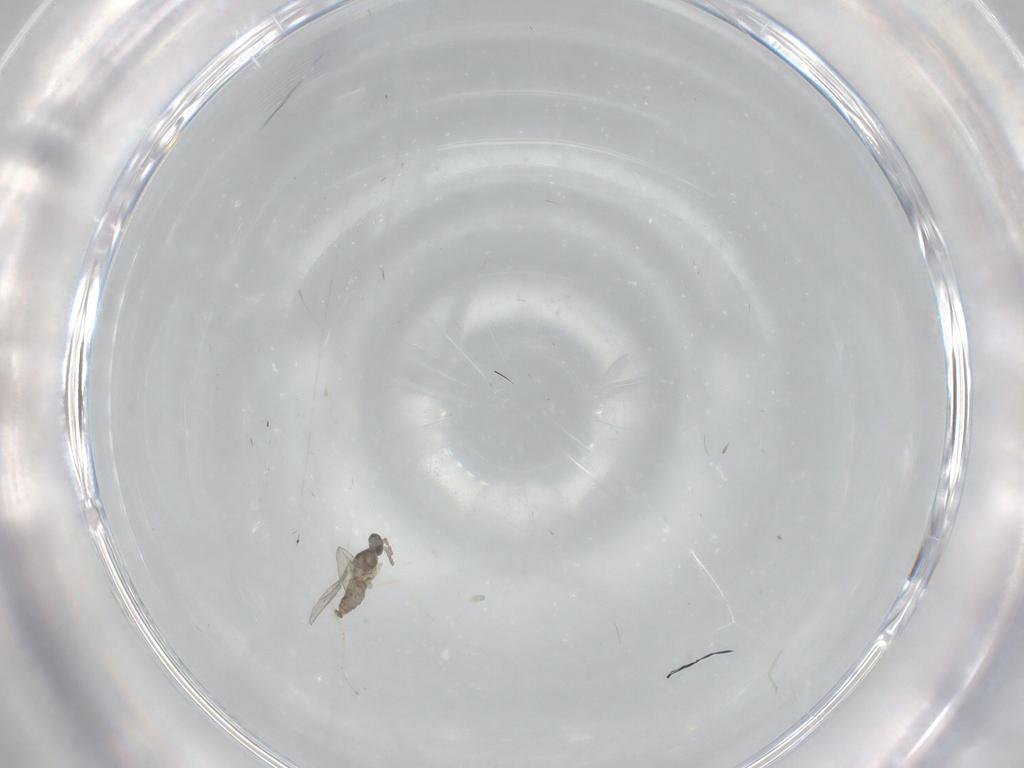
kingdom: Animalia
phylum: Arthropoda
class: Insecta
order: Diptera
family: Cecidomyiidae
